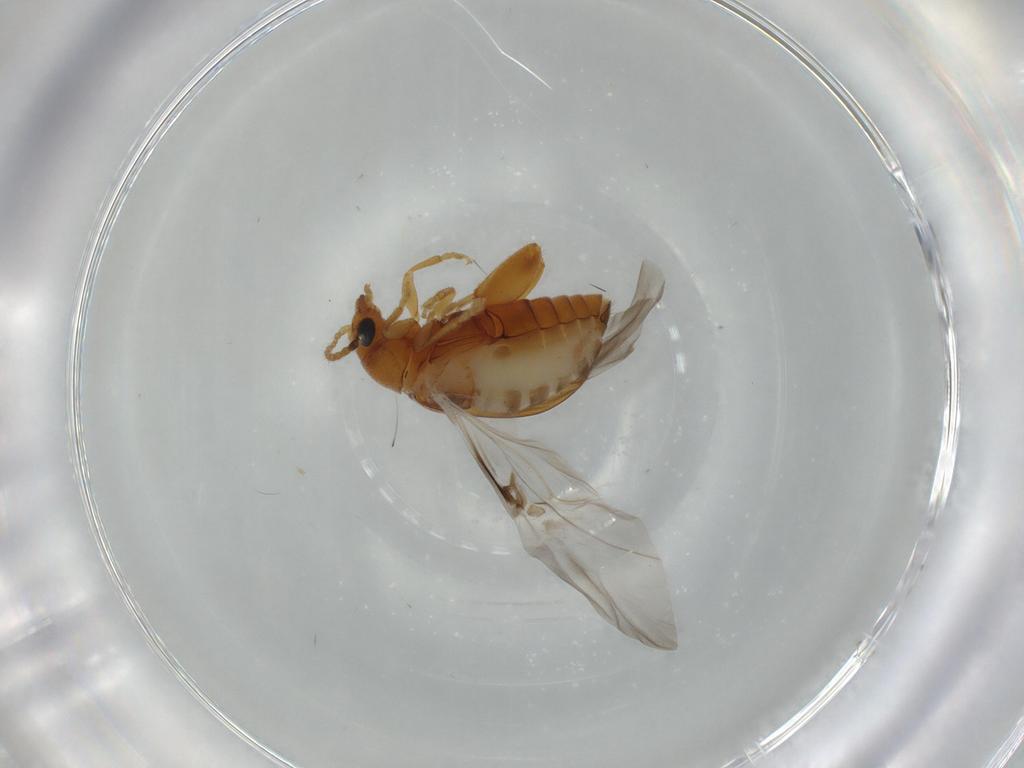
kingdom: Animalia
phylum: Arthropoda
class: Insecta
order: Coleoptera
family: Chrysomelidae
